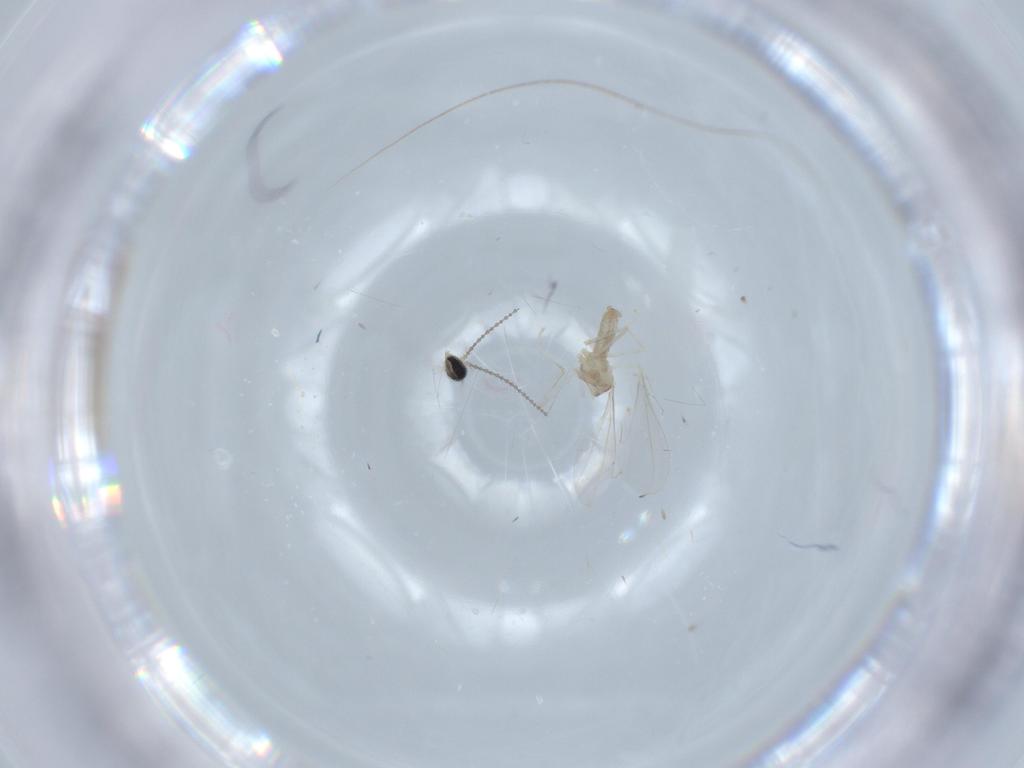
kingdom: Animalia
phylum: Arthropoda
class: Insecta
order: Diptera
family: Cecidomyiidae
